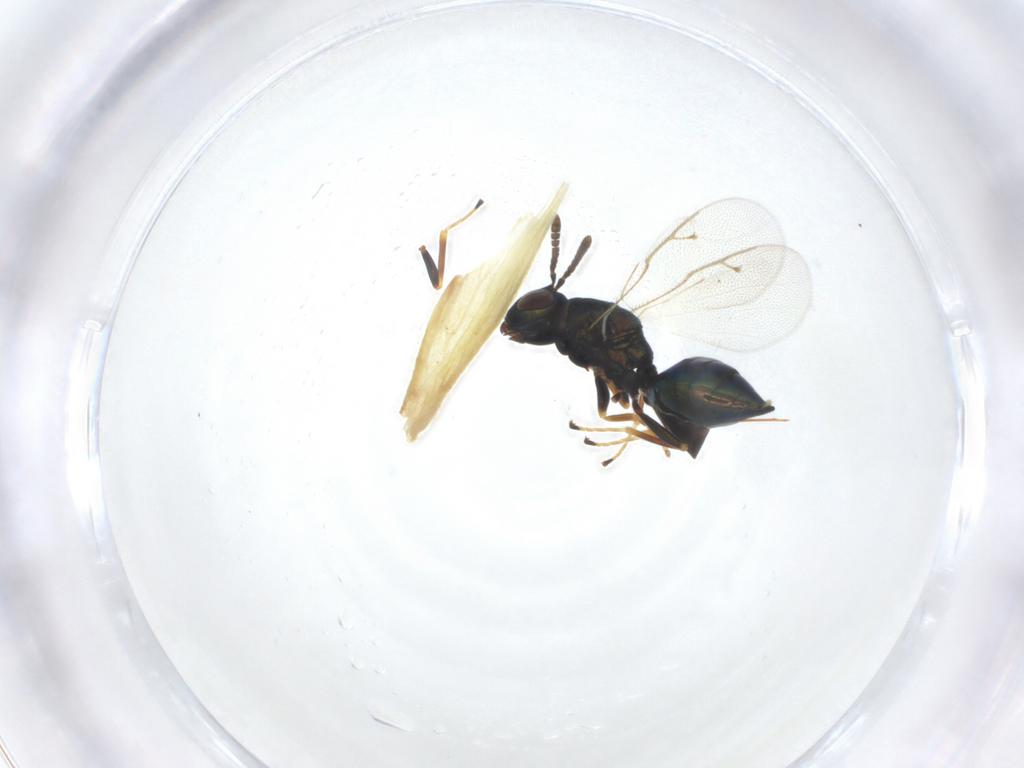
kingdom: Animalia
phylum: Arthropoda
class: Insecta
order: Hymenoptera
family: Pteromalidae
